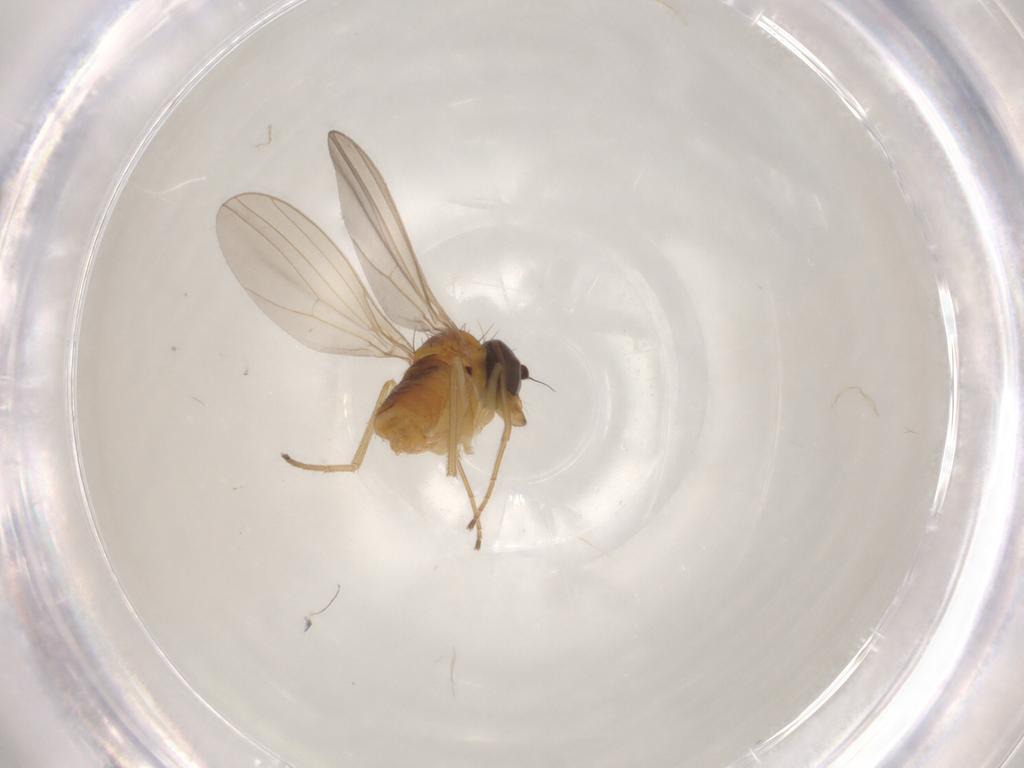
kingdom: Animalia
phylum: Arthropoda
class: Insecta
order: Diptera
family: Dolichopodidae
